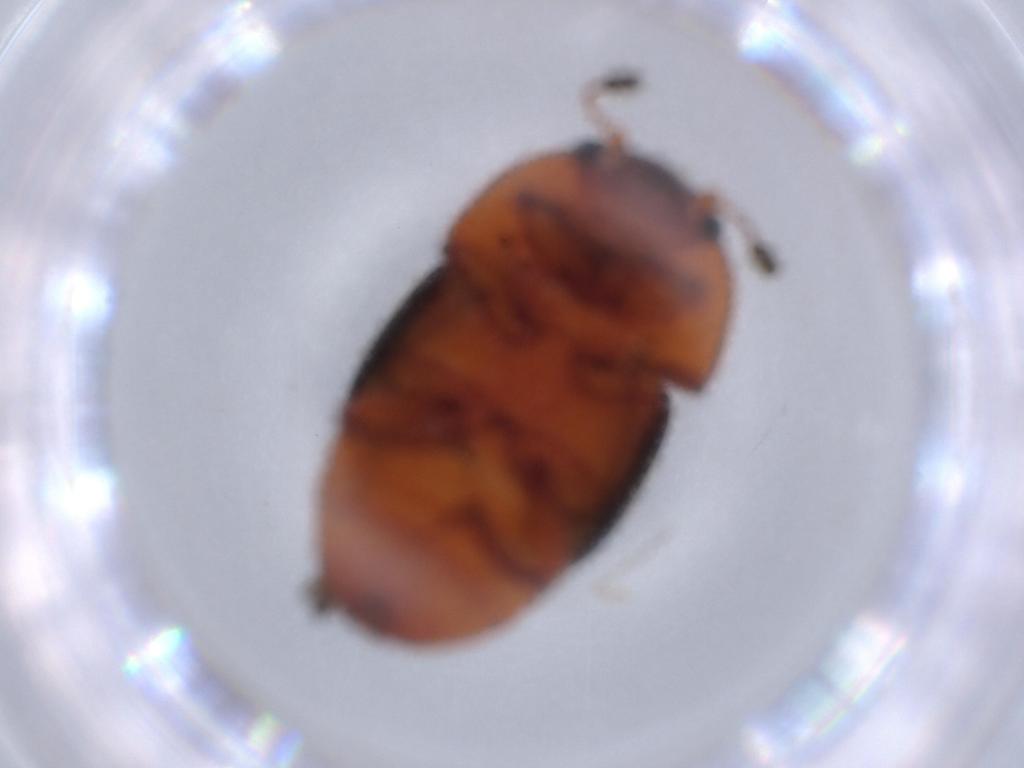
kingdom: Animalia
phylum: Arthropoda
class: Insecta
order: Coleoptera
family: Nitidulidae
